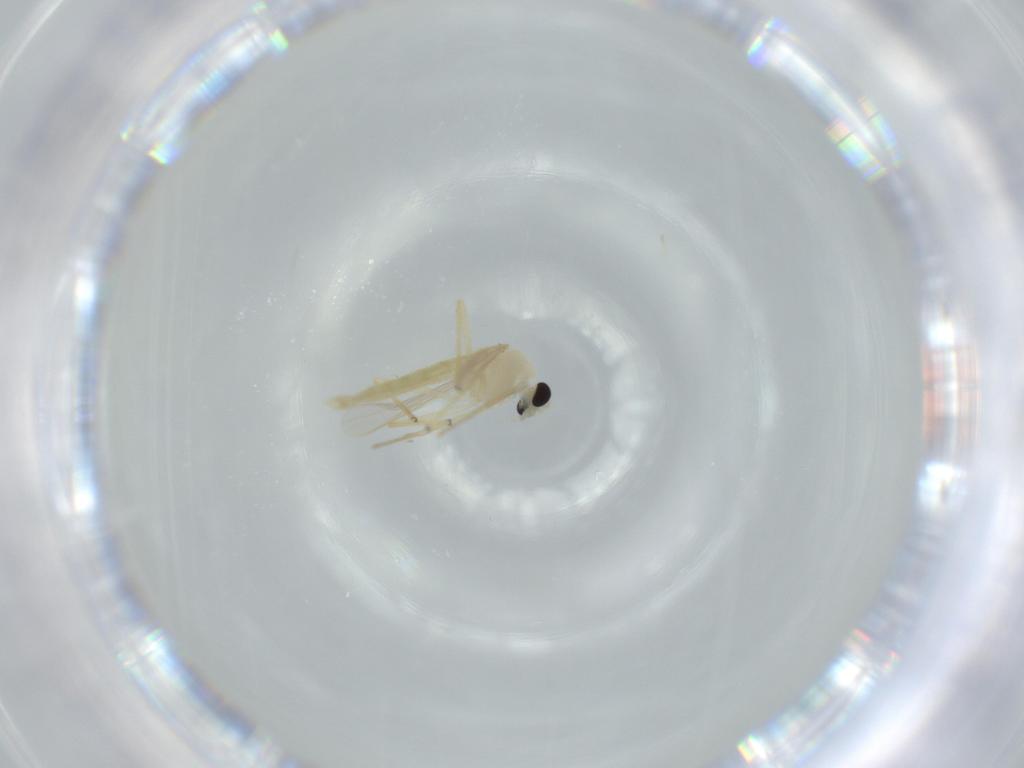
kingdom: Animalia
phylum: Arthropoda
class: Insecta
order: Diptera
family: Chironomidae
